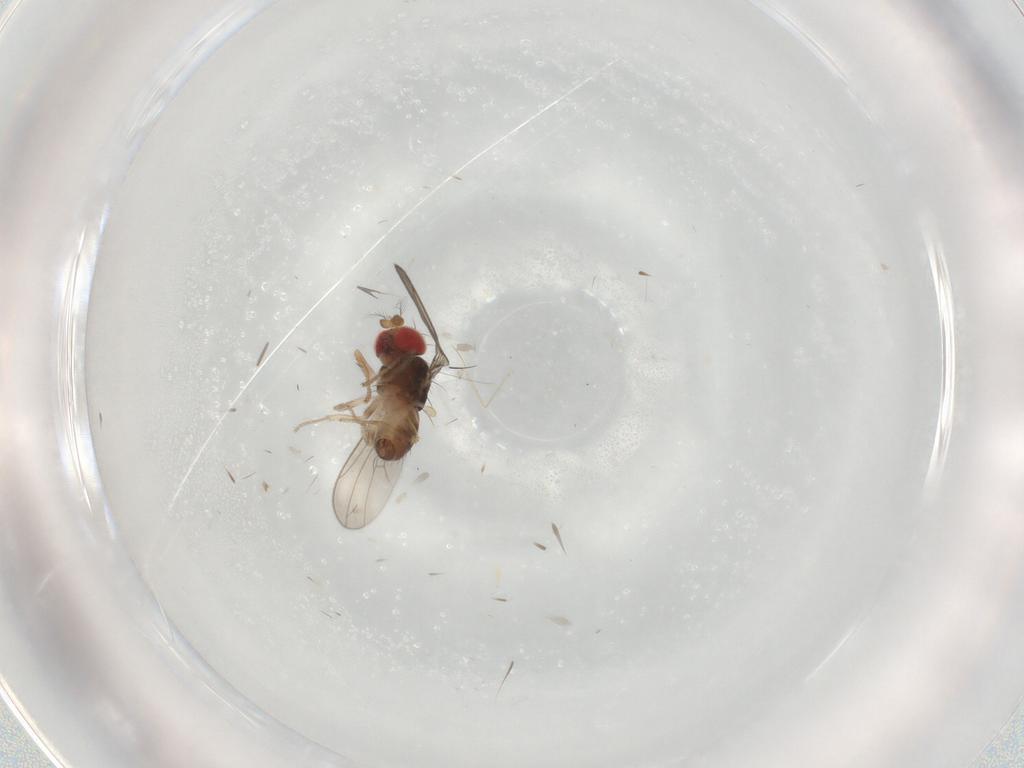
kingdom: Animalia
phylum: Arthropoda
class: Insecta
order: Diptera
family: Drosophilidae
